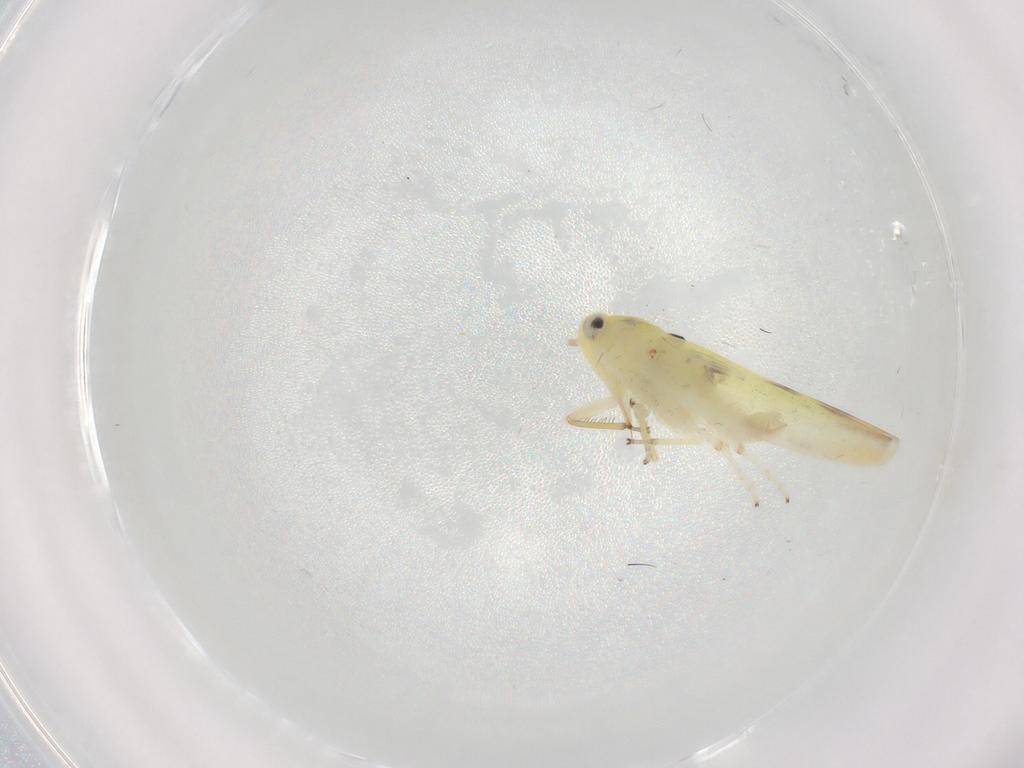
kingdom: Animalia
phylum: Arthropoda
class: Insecta
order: Hemiptera
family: Cicadellidae
